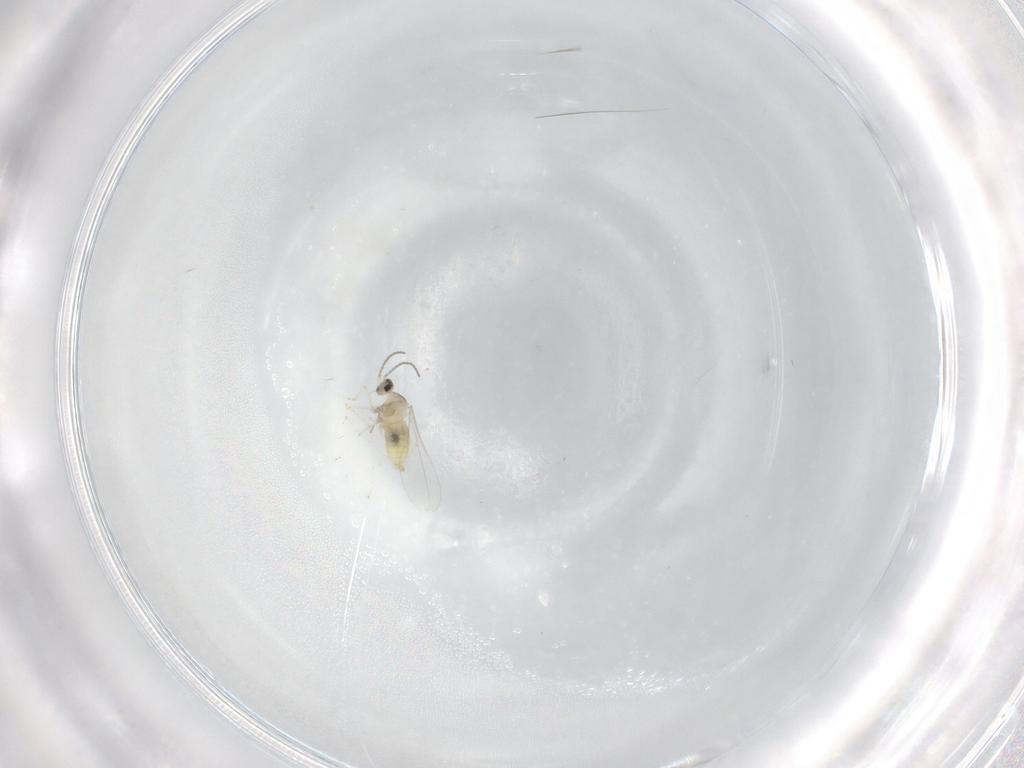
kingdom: Animalia
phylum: Arthropoda
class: Insecta
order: Diptera
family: Cecidomyiidae
